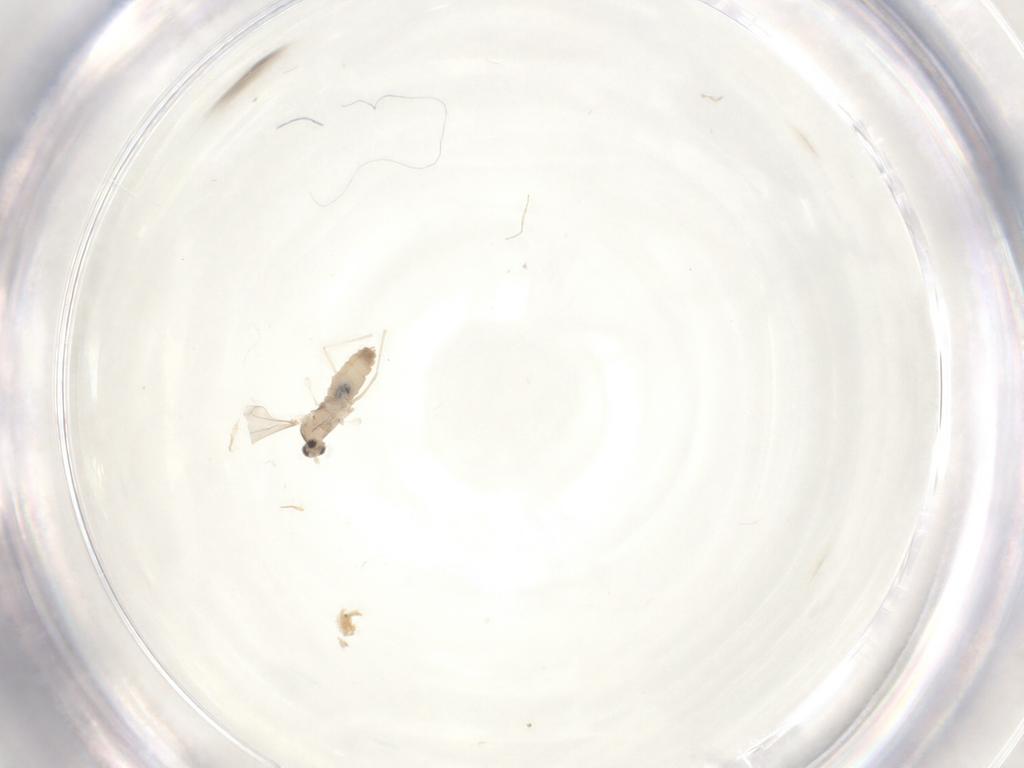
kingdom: Animalia
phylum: Arthropoda
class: Insecta
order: Diptera
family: Cecidomyiidae
